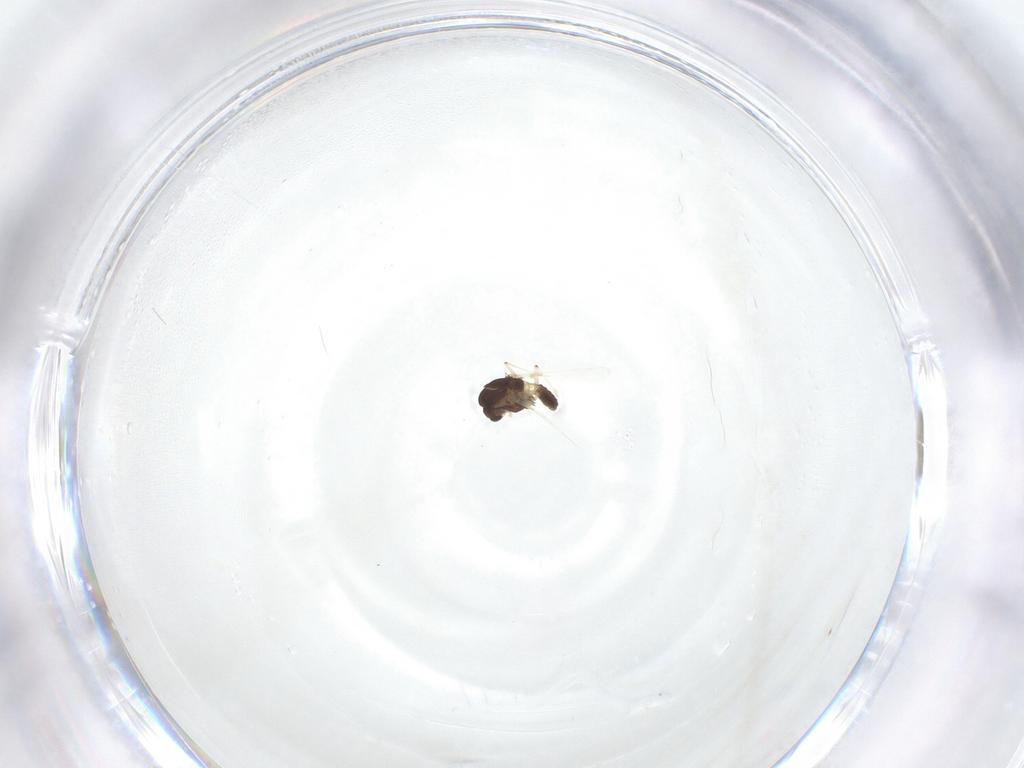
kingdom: Animalia
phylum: Arthropoda
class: Insecta
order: Diptera
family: Chironomidae
